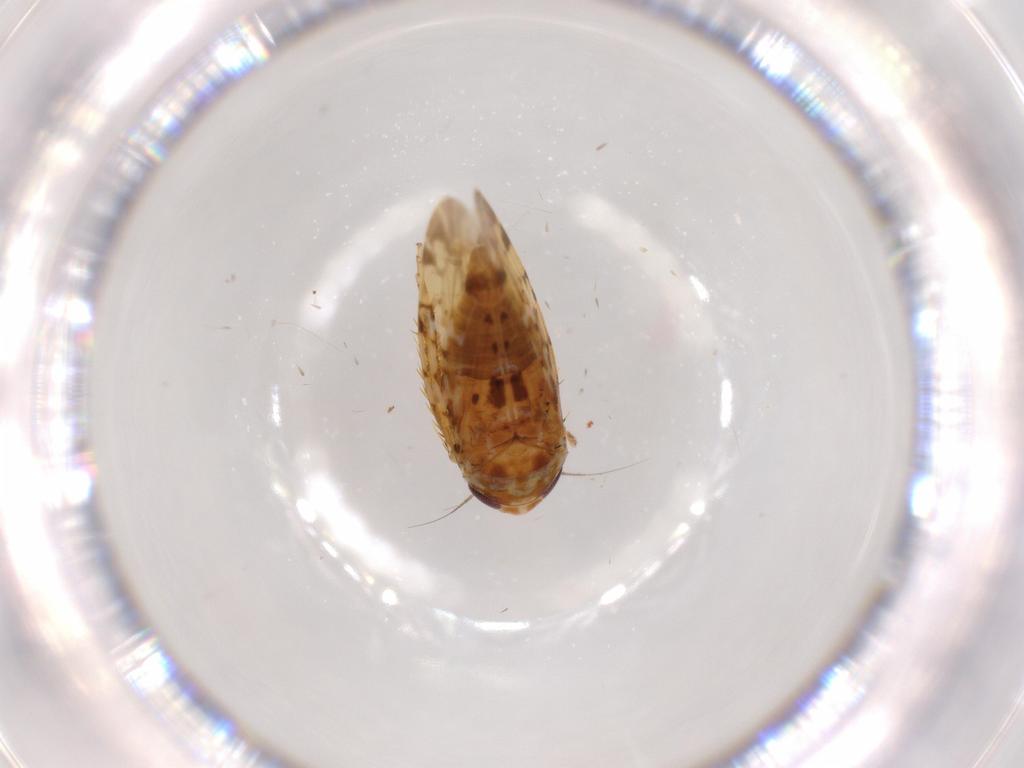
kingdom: Animalia
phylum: Arthropoda
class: Insecta
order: Hemiptera
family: Cicadellidae
